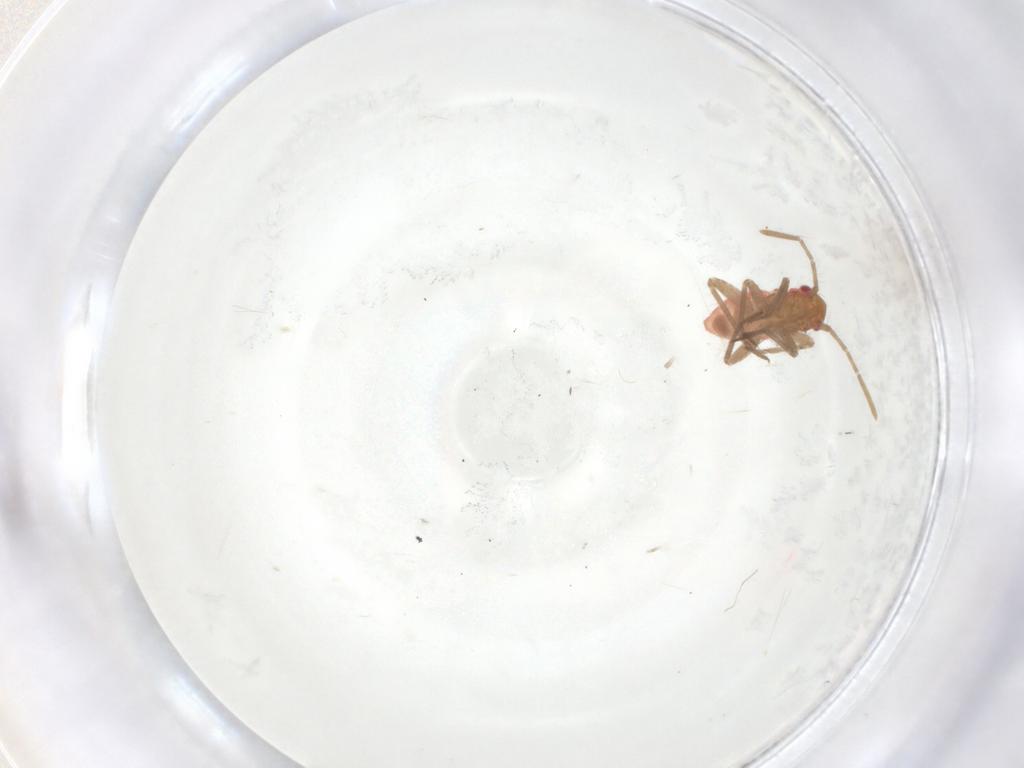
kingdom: Animalia
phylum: Arthropoda
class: Insecta
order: Hemiptera
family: Miridae
